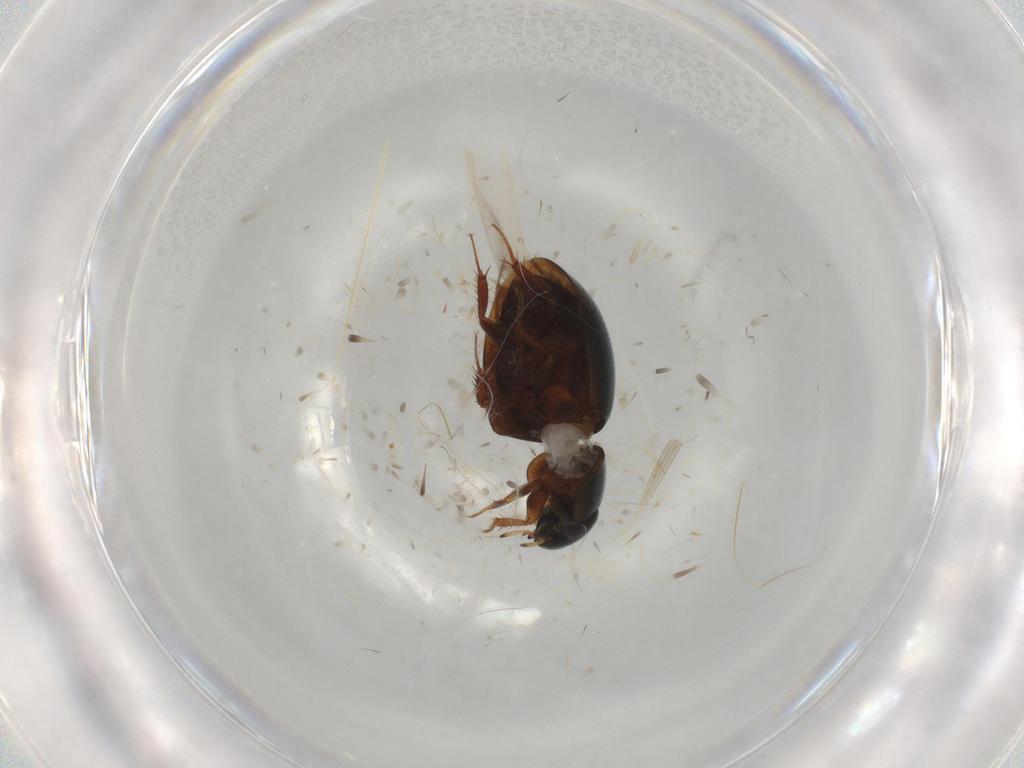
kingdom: Animalia
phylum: Arthropoda
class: Insecta
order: Coleoptera
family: Hydrophilidae
